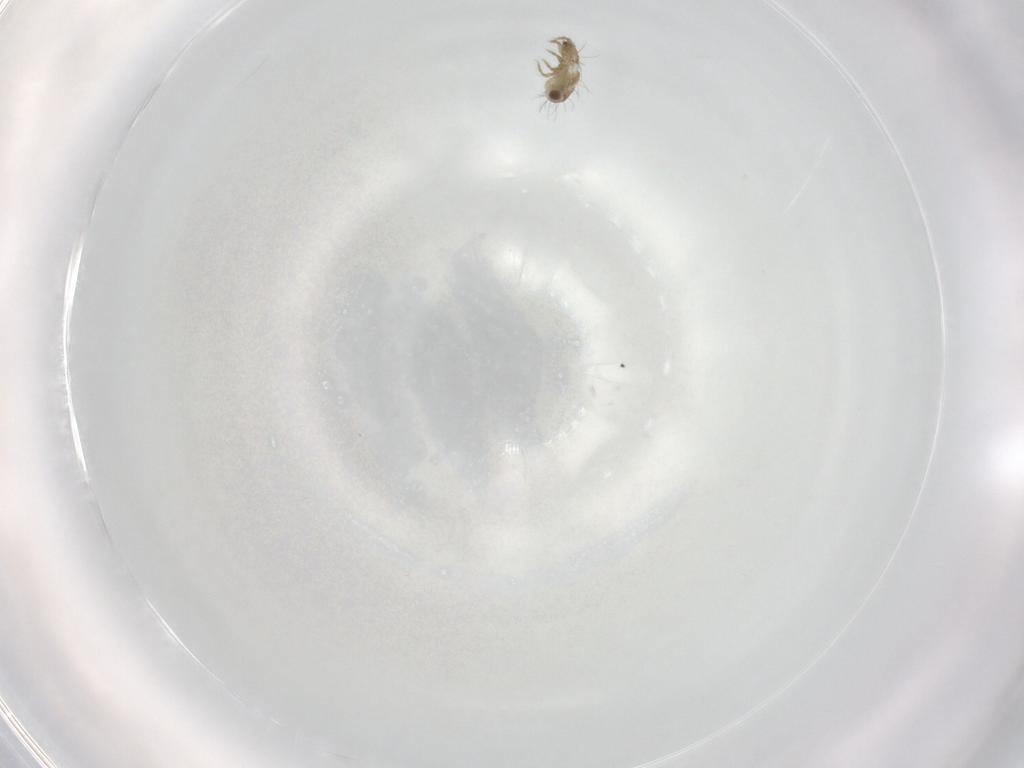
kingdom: Animalia
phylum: Arthropoda
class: Arachnida
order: Sarcoptiformes
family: Ceratozetidae
